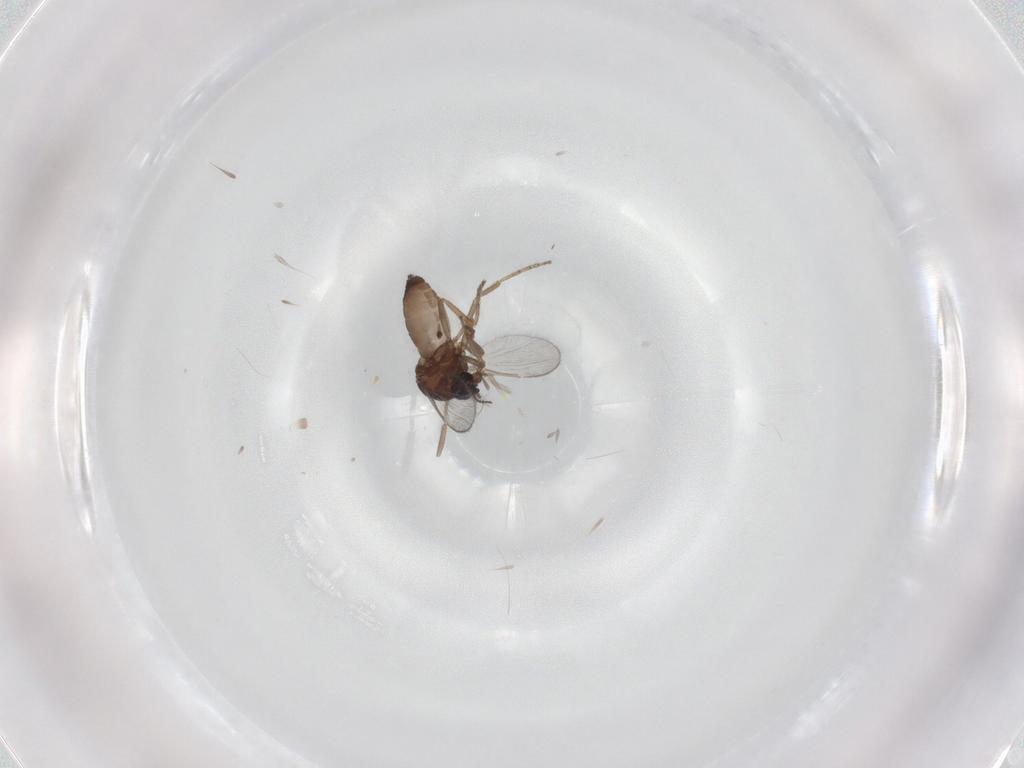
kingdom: Animalia
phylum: Arthropoda
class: Insecta
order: Diptera
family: Ceratopogonidae
